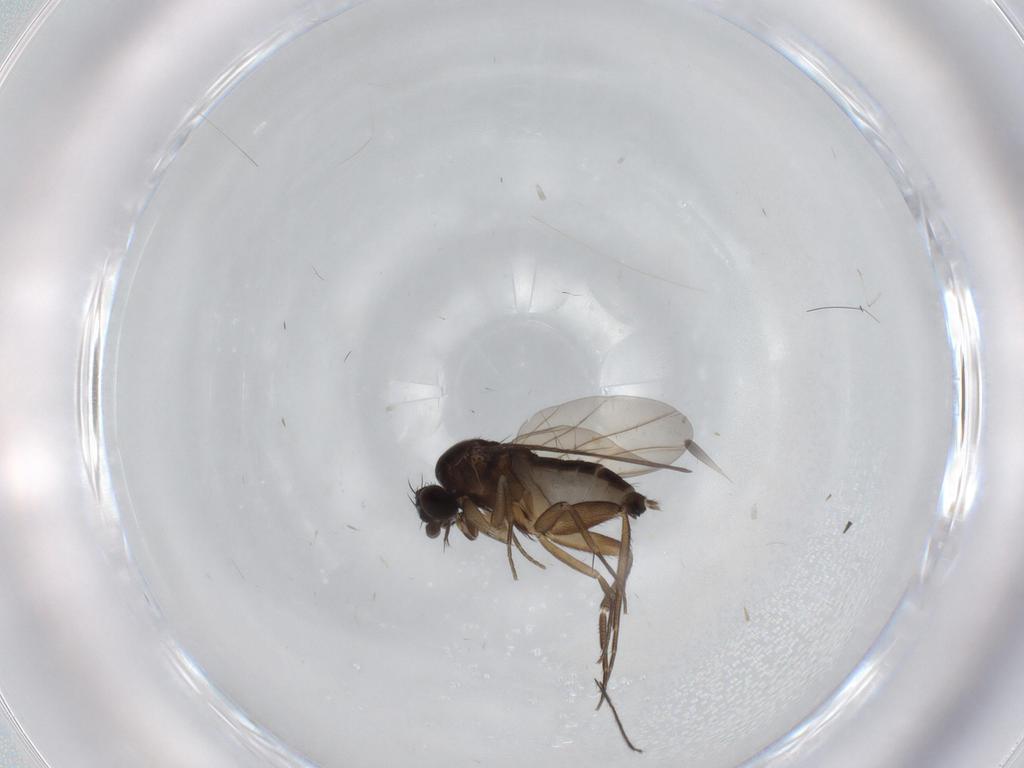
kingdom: Animalia
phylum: Arthropoda
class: Insecta
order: Diptera
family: Phoridae
